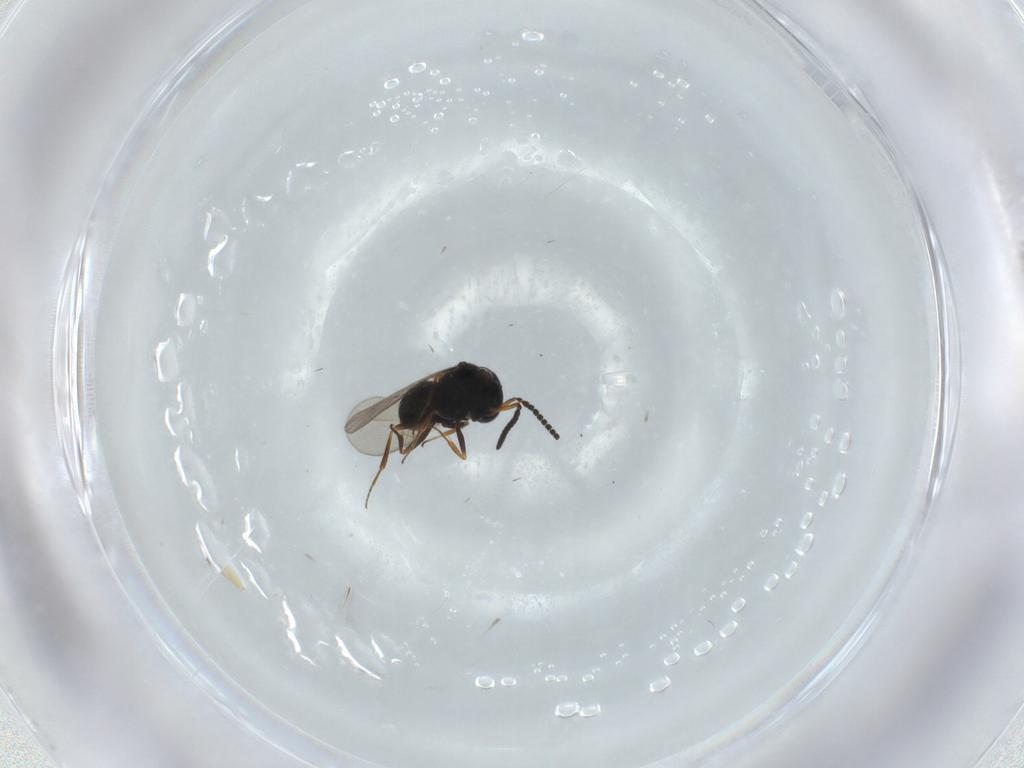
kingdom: Animalia
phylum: Arthropoda
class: Insecta
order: Hymenoptera
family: Scelionidae
